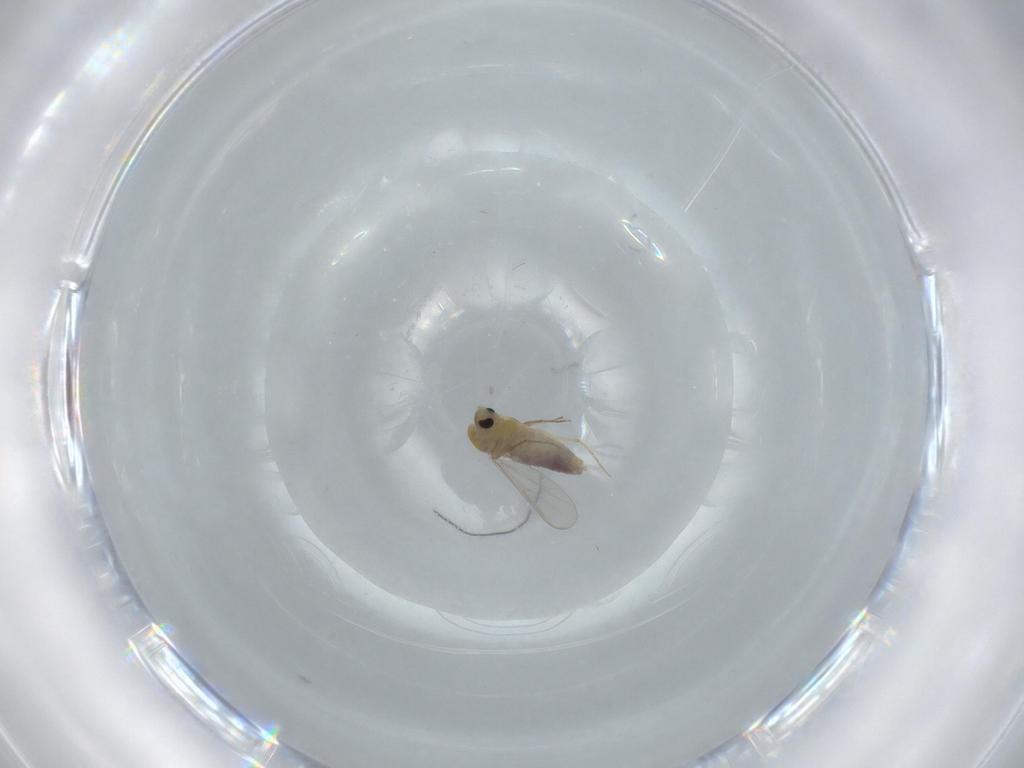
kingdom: Animalia
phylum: Arthropoda
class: Insecta
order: Diptera
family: Chironomidae
